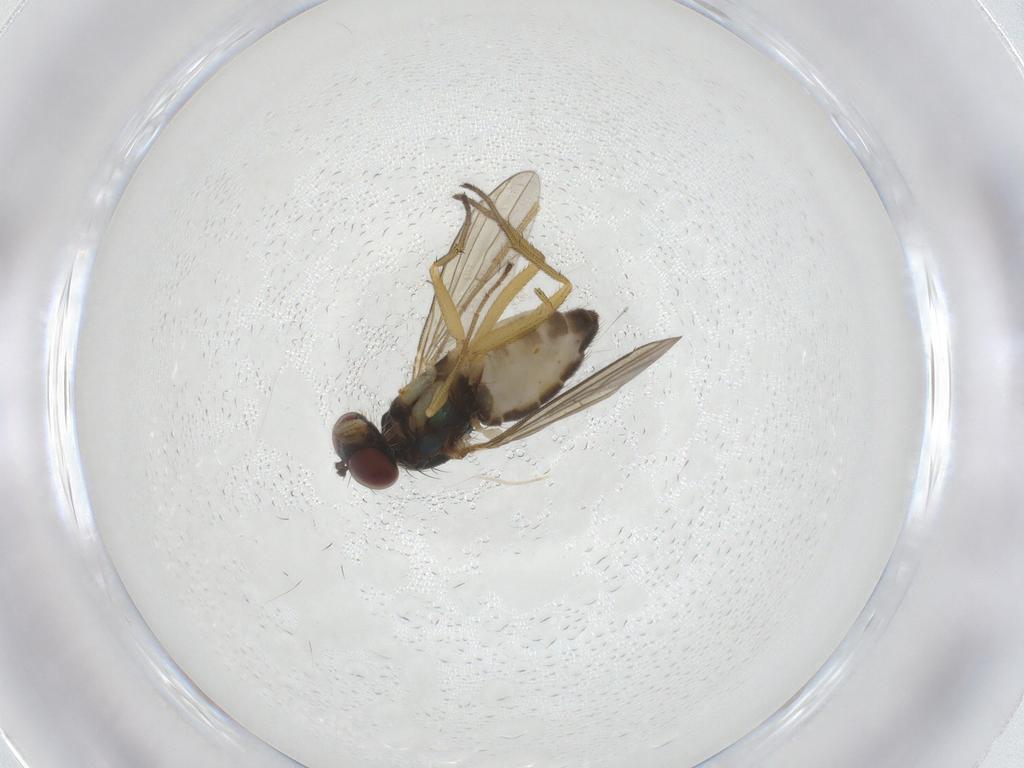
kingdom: Animalia
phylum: Arthropoda
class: Insecta
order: Diptera
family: Dolichopodidae
